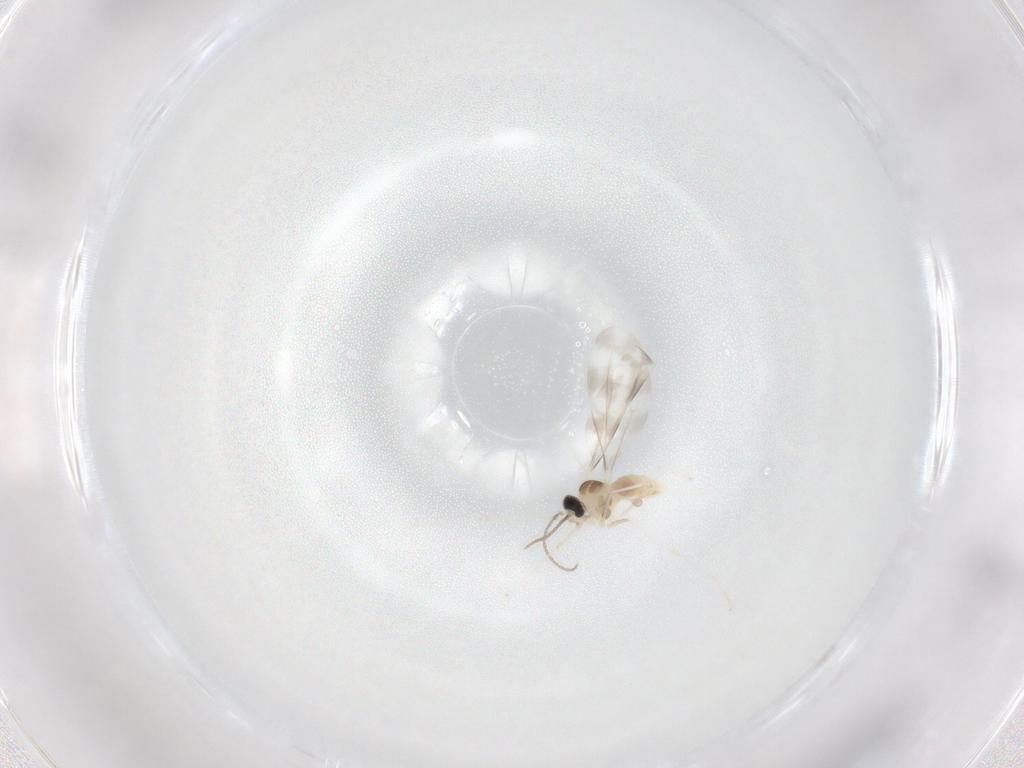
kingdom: Animalia
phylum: Arthropoda
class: Insecta
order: Diptera
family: Cecidomyiidae
